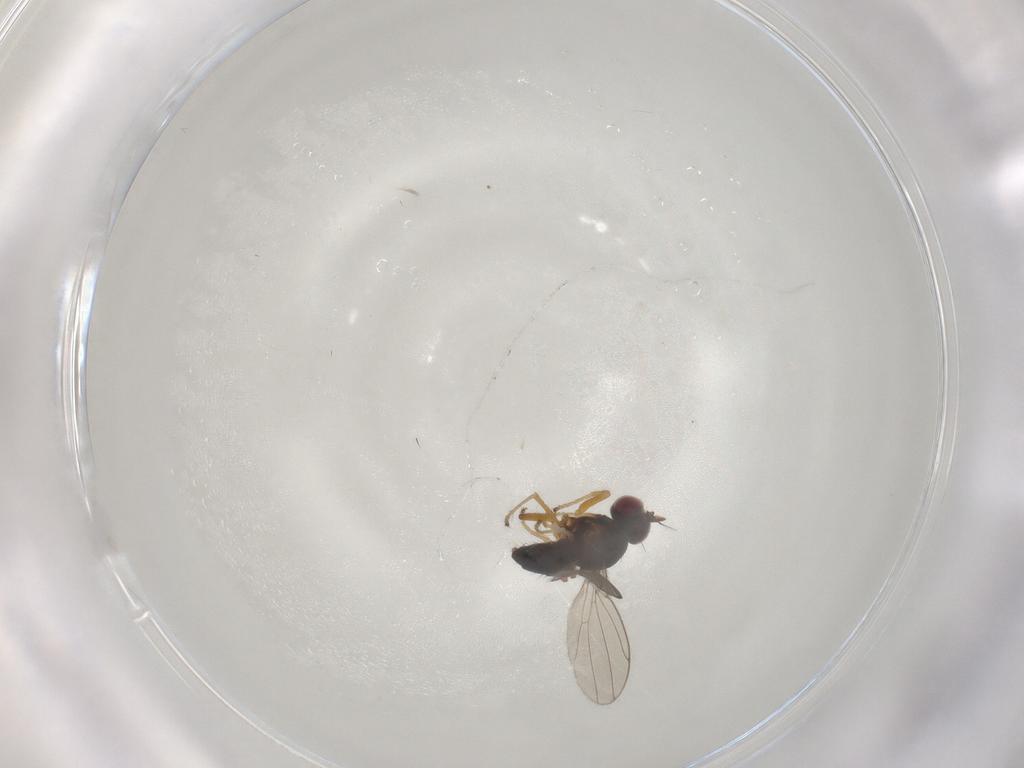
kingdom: Animalia
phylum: Arthropoda
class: Insecta
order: Diptera
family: Ephydridae
